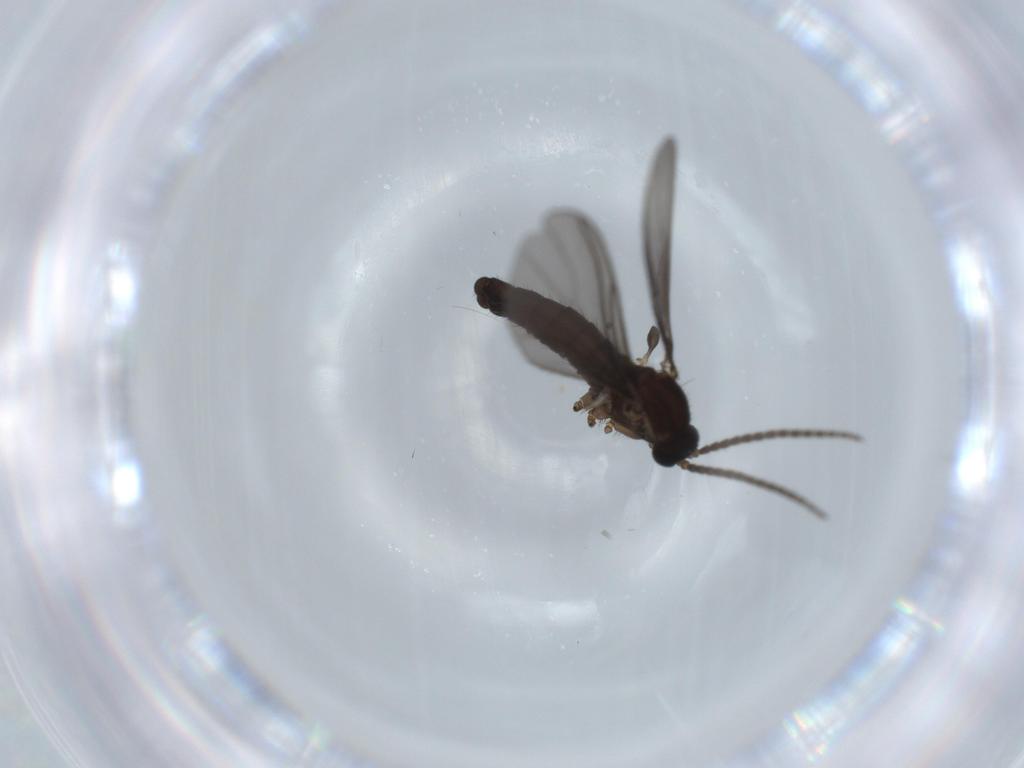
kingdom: Animalia
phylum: Arthropoda
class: Insecta
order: Diptera
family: Sciaridae
